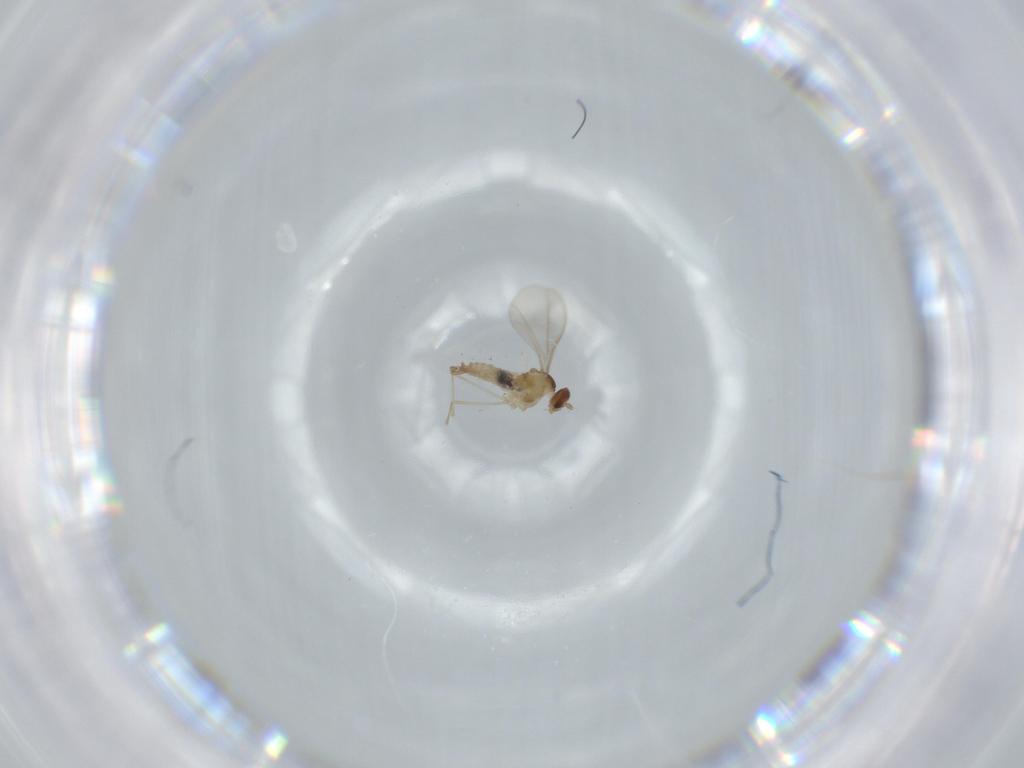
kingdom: Animalia
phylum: Arthropoda
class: Insecta
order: Diptera
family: Cecidomyiidae
